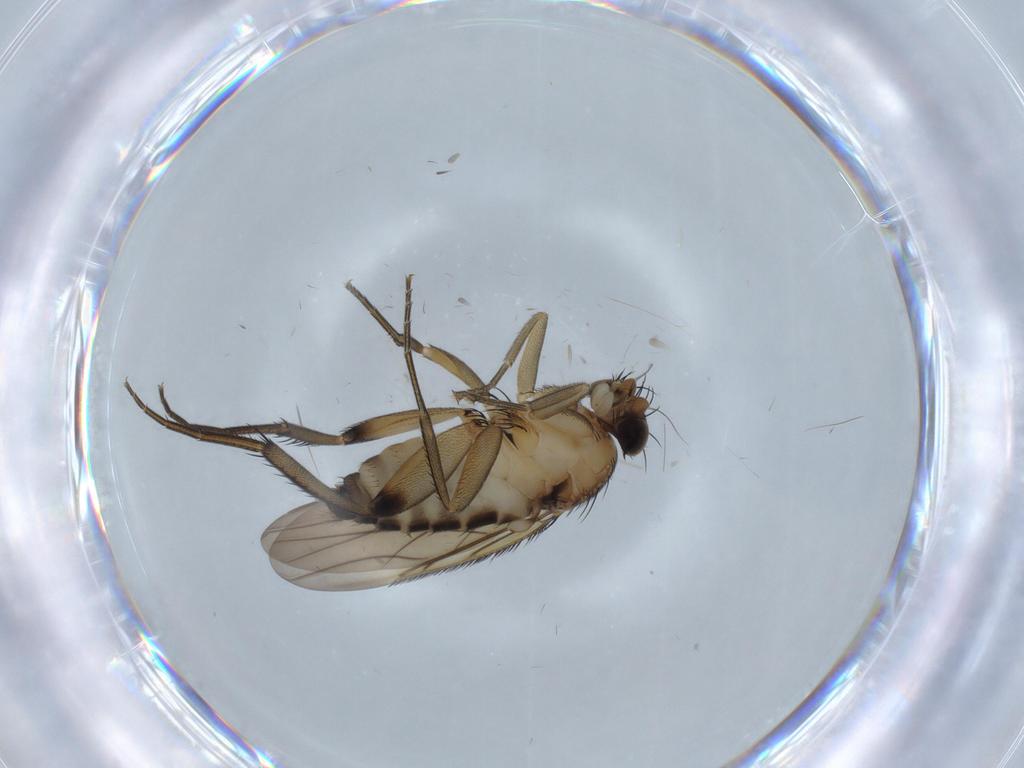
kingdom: Animalia
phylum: Arthropoda
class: Insecta
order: Diptera
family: Phoridae
